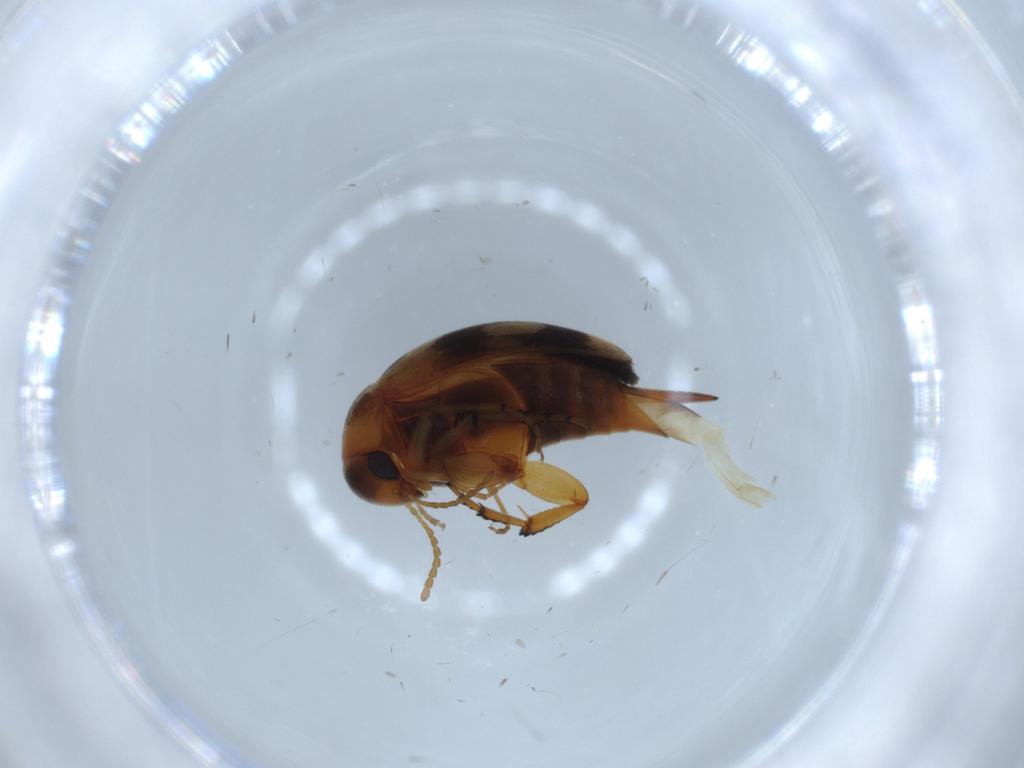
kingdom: Animalia
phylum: Arthropoda
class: Insecta
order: Coleoptera
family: Mordellidae
